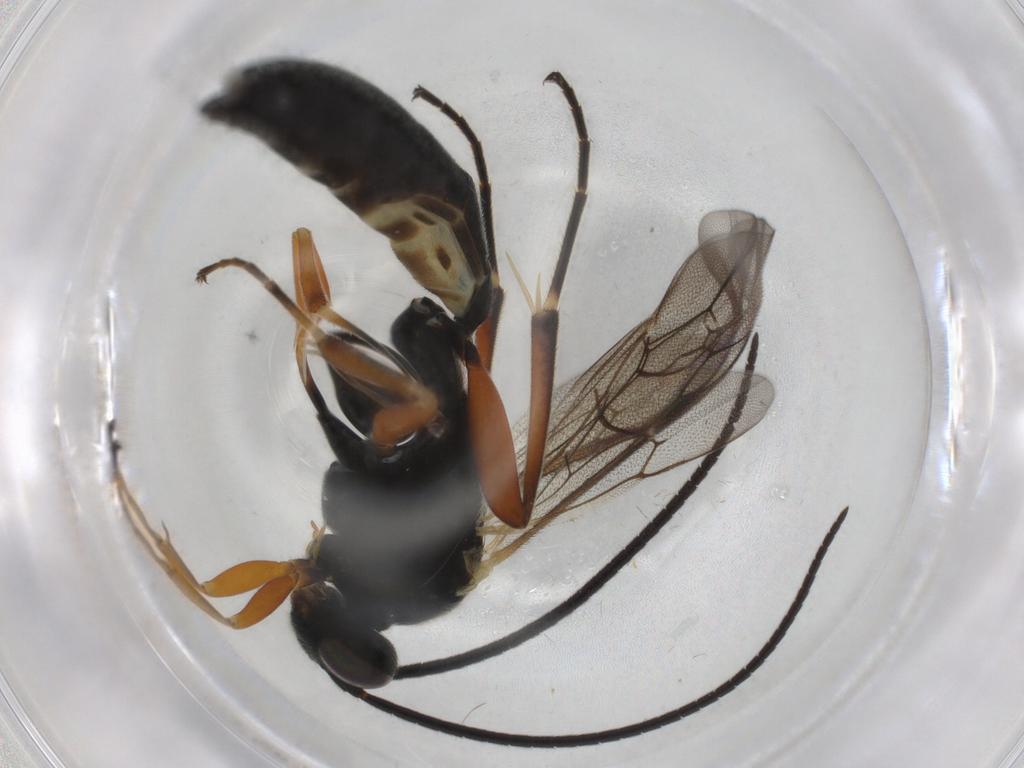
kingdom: Animalia
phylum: Arthropoda
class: Insecta
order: Hymenoptera
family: Ichneumonidae
